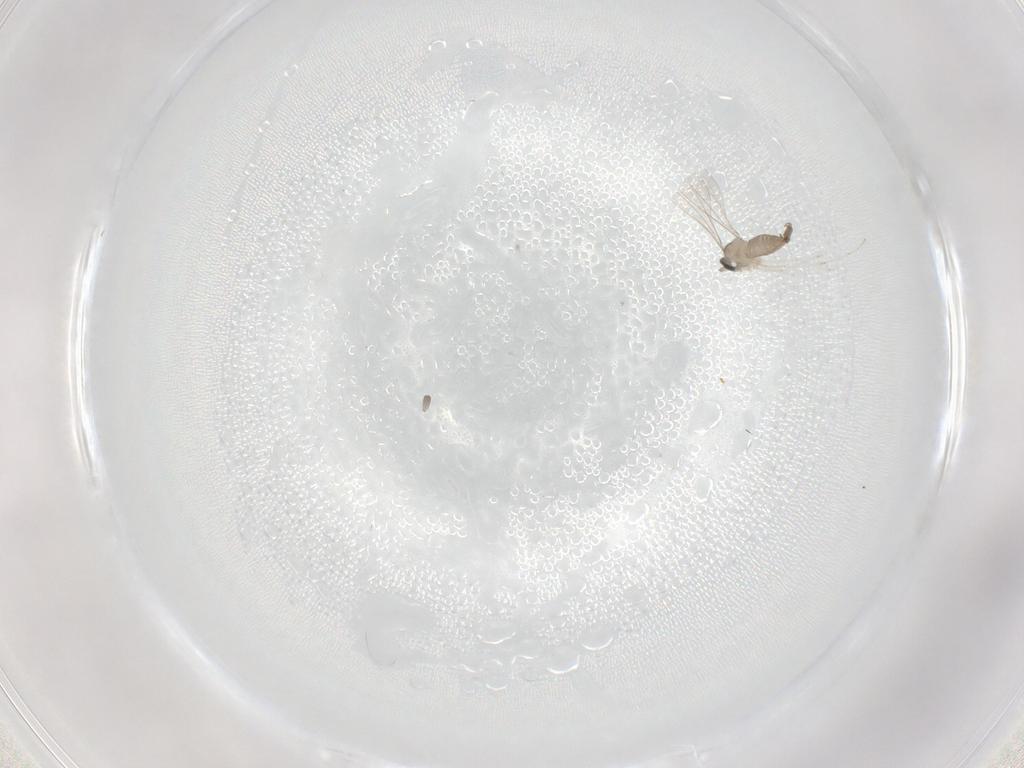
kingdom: Animalia
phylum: Arthropoda
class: Insecta
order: Diptera
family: Cecidomyiidae
